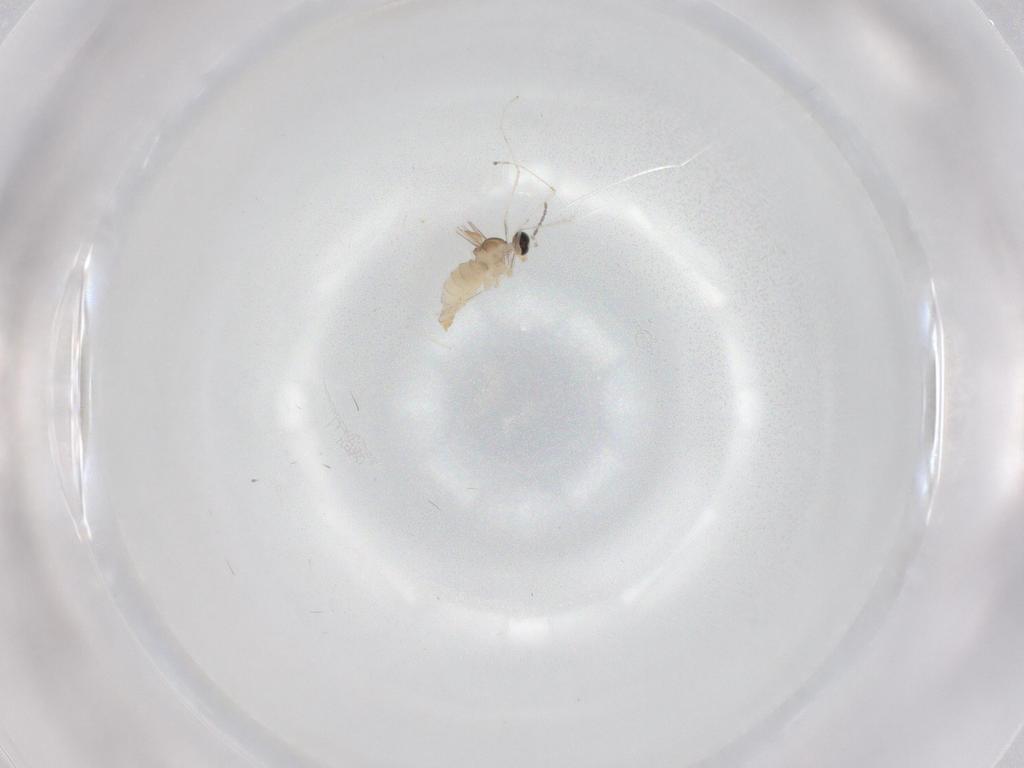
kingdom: Animalia
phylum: Arthropoda
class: Insecta
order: Diptera
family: Cecidomyiidae
